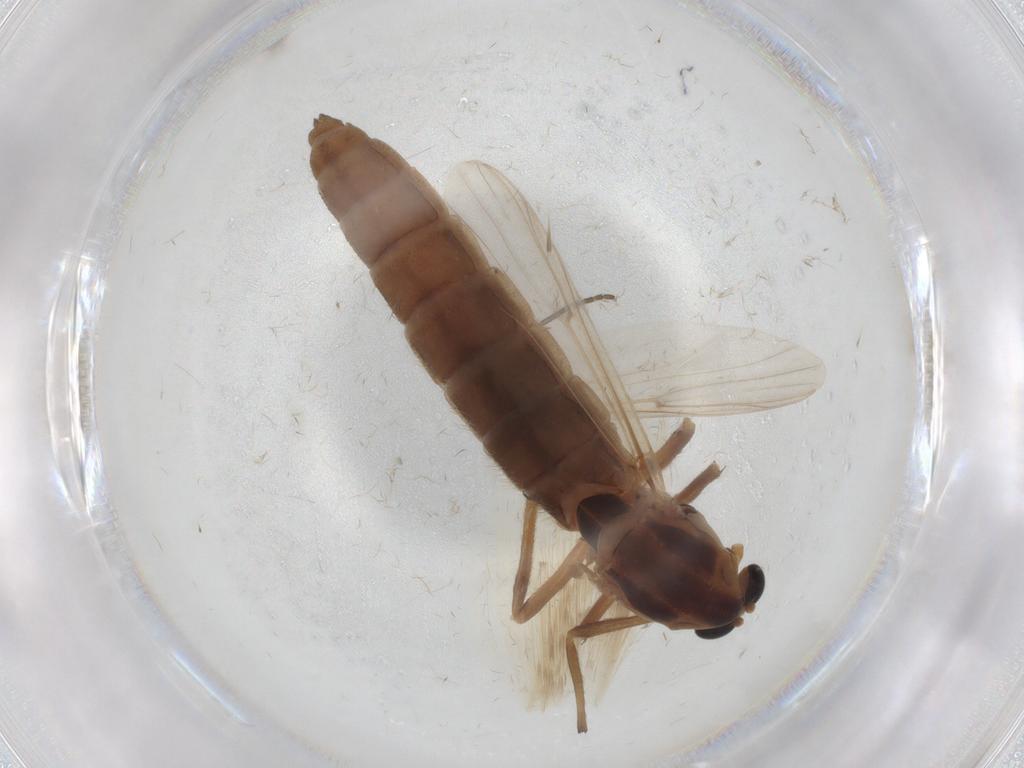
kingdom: Animalia
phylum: Arthropoda
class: Insecta
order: Diptera
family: Chironomidae
